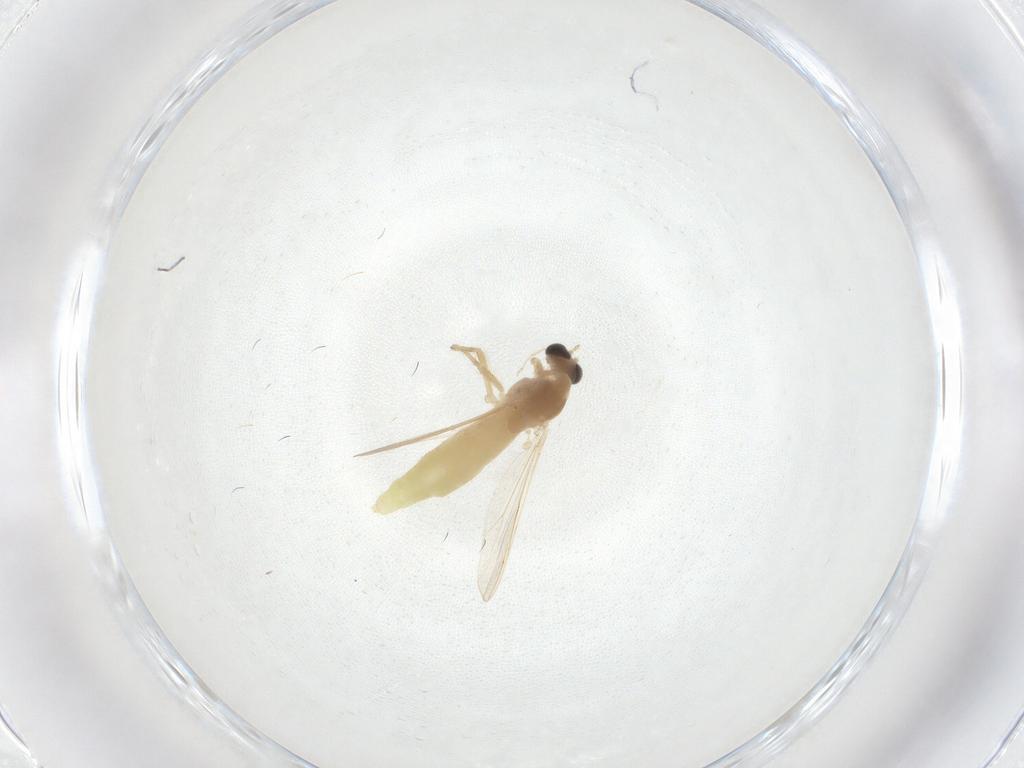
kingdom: Animalia
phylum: Arthropoda
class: Insecta
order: Diptera
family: Chironomidae
